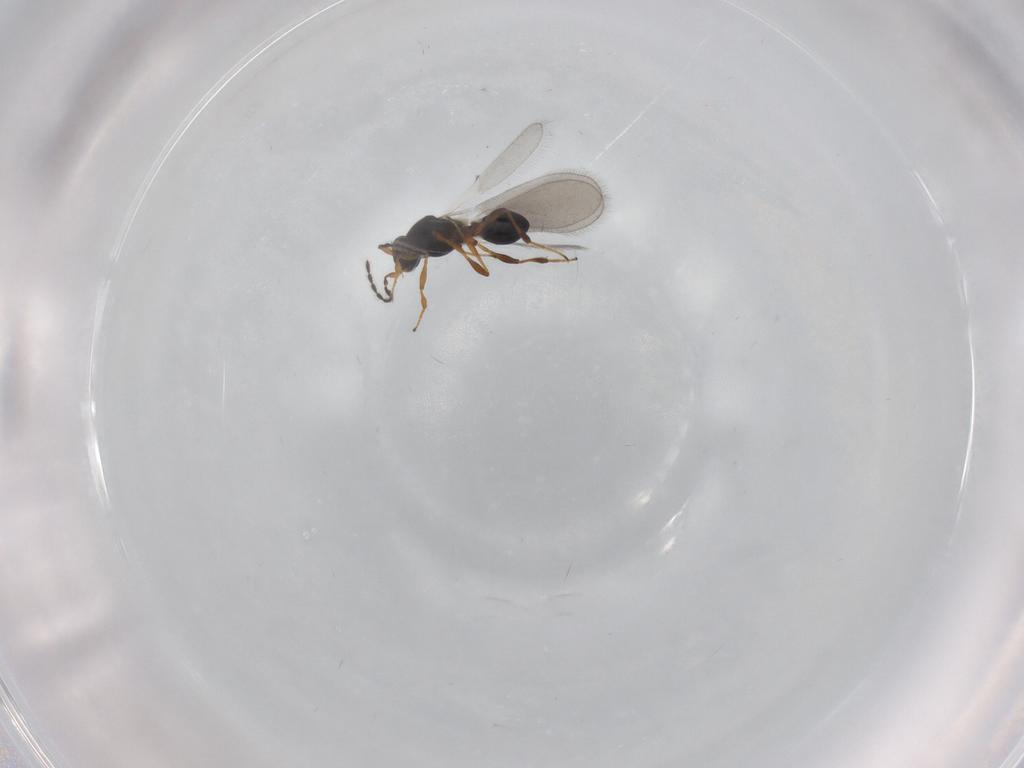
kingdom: Animalia
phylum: Arthropoda
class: Insecta
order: Hymenoptera
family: Platygastridae
